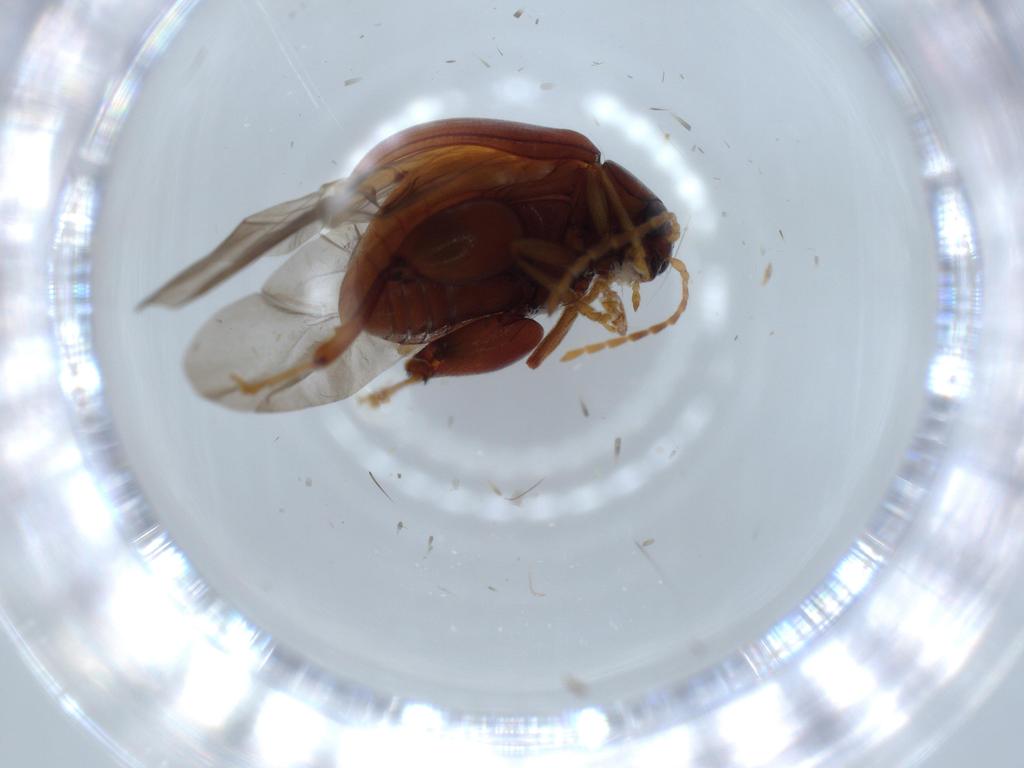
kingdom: Animalia
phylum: Arthropoda
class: Insecta
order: Coleoptera
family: Chrysomelidae
